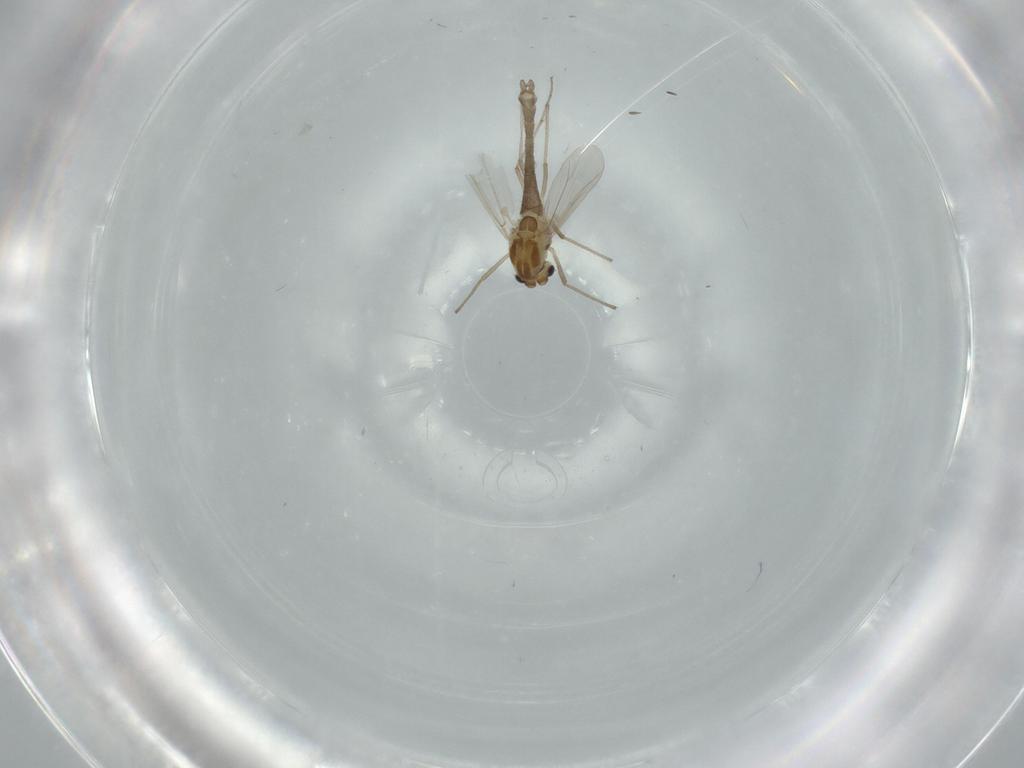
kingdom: Animalia
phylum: Arthropoda
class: Insecta
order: Diptera
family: Chironomidae
